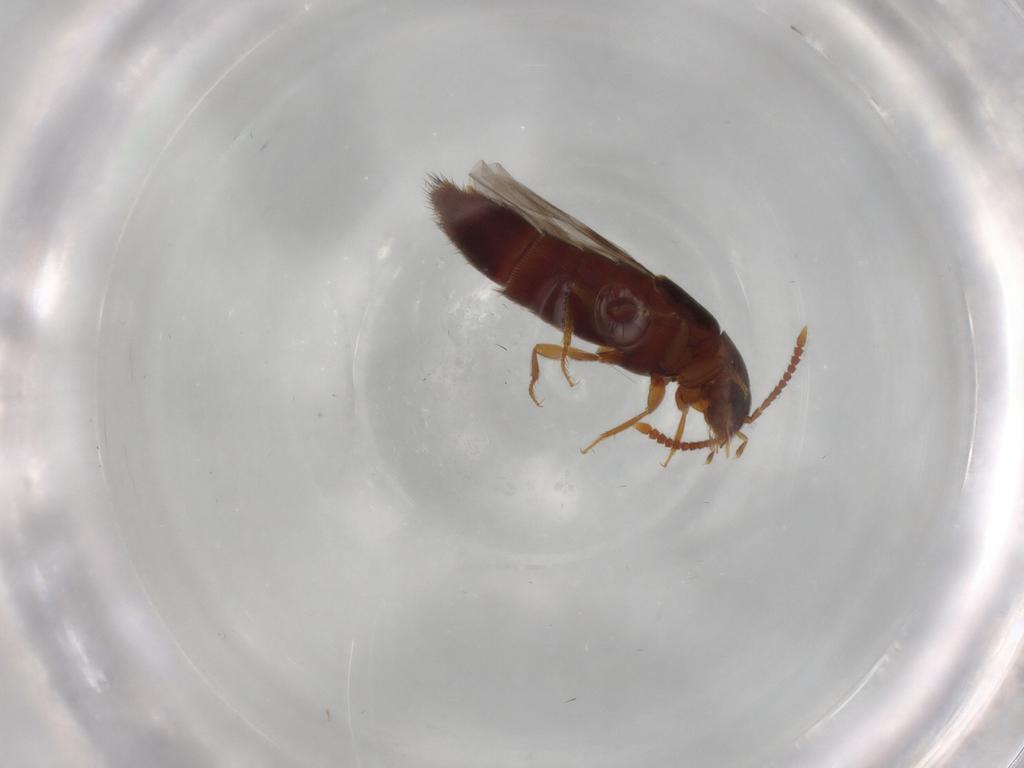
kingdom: Animalia
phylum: Arthropoda
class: Insecta
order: Coleoptera
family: Staphylinidae
